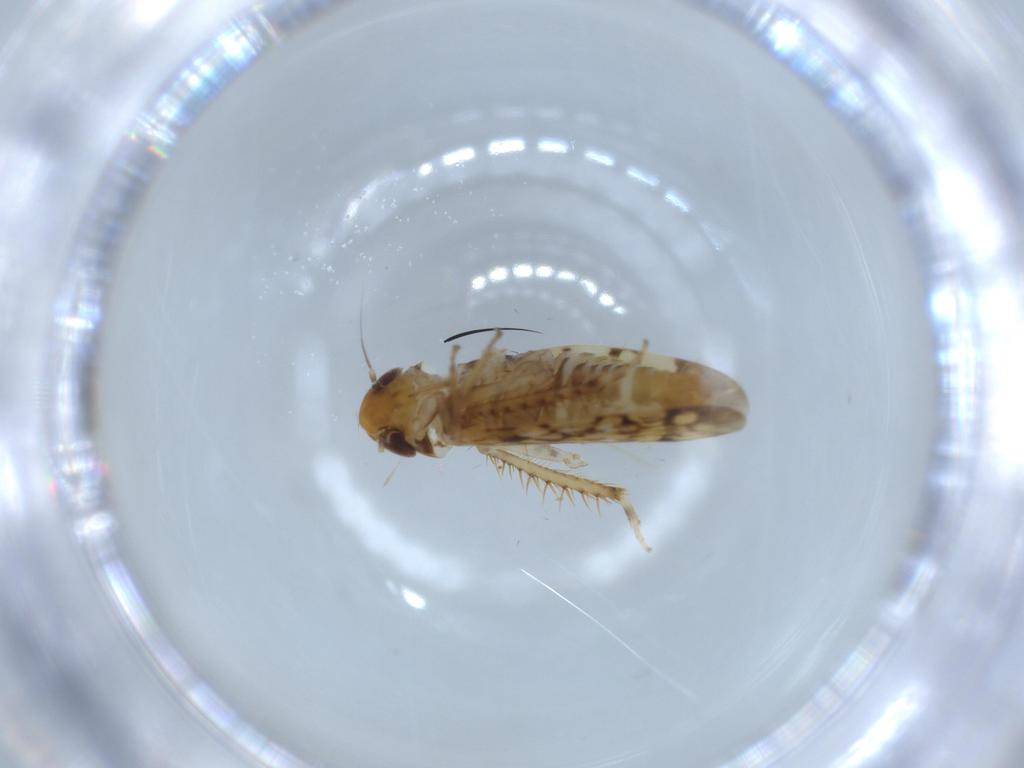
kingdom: Animalia
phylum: Arthropoda
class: Insecta
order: Hemiptera
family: Cicadellidae
